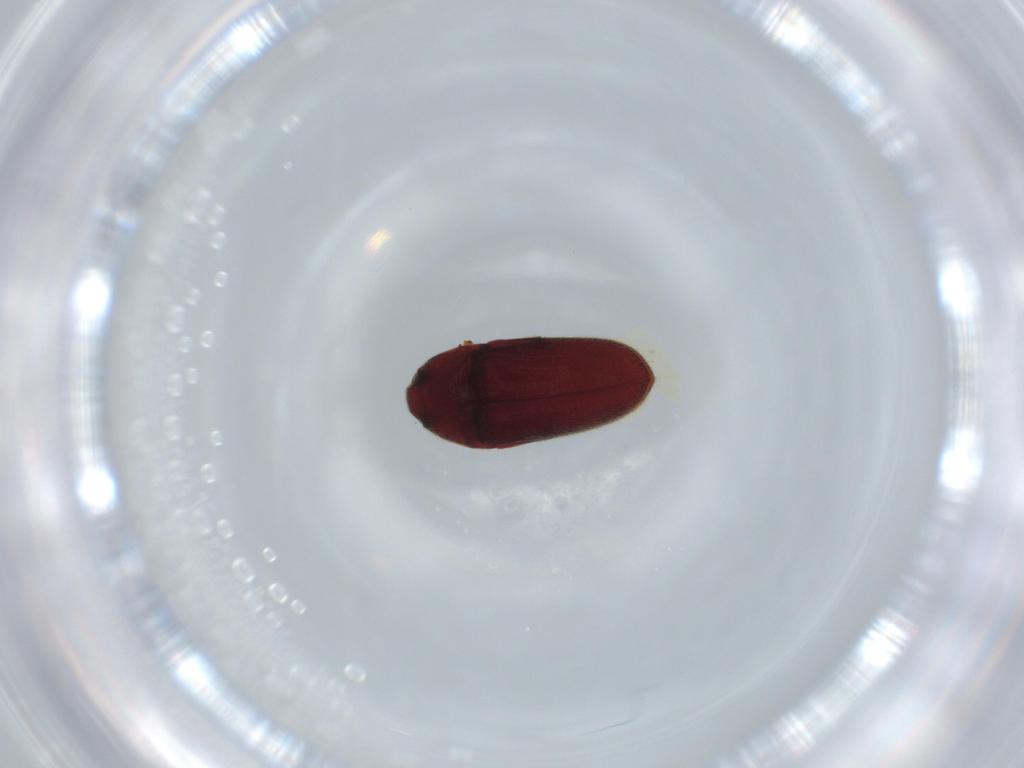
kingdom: Animalia
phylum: Arthropoda
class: Insecta
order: Coleoptera
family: Throscidae
